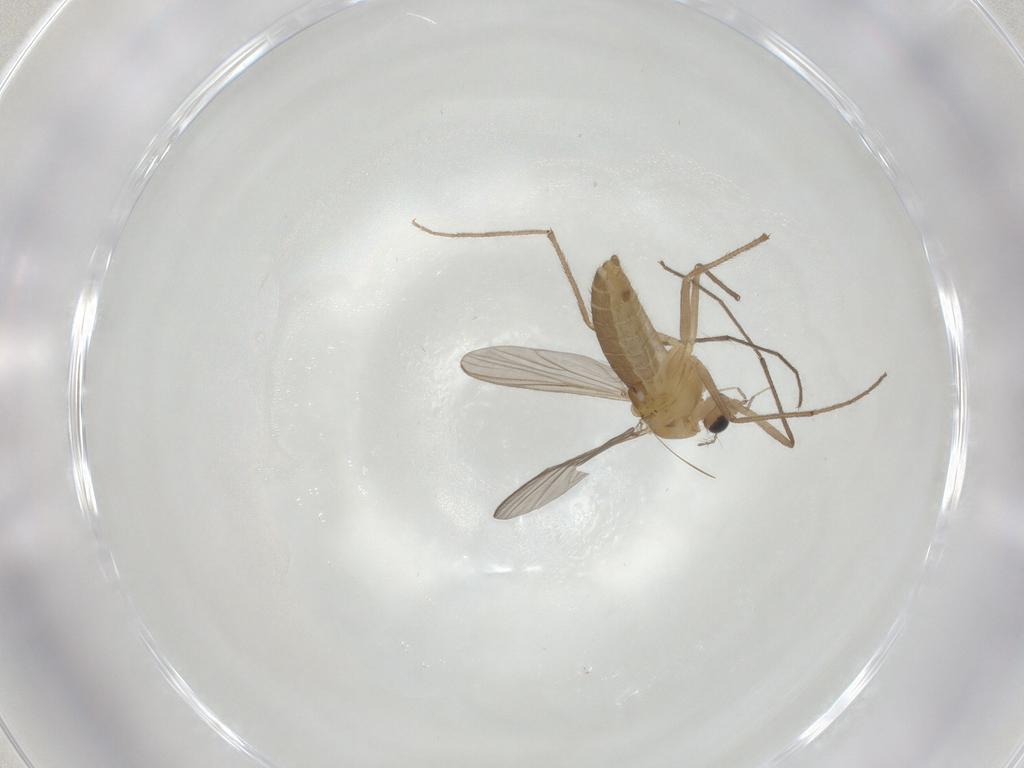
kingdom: Animalia
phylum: Arthropoda
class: Insecta
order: Diptera
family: Chironomidae
